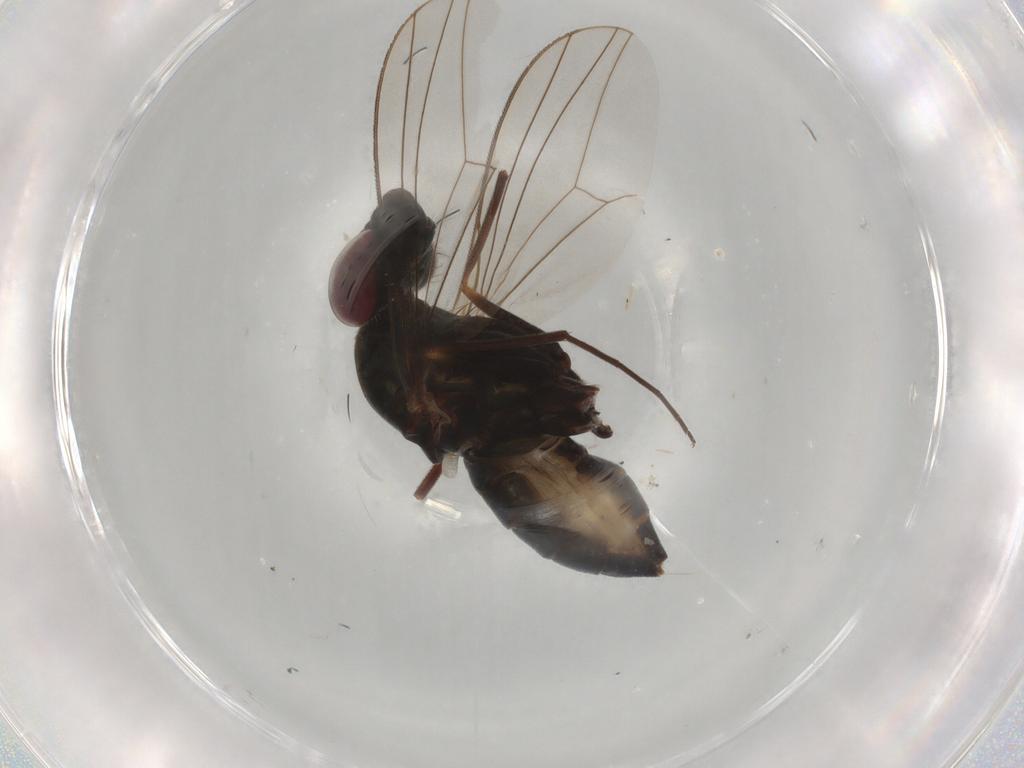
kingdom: Animalia
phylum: Arthropoda
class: Insecta
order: Diptera
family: Dolichopodidae
